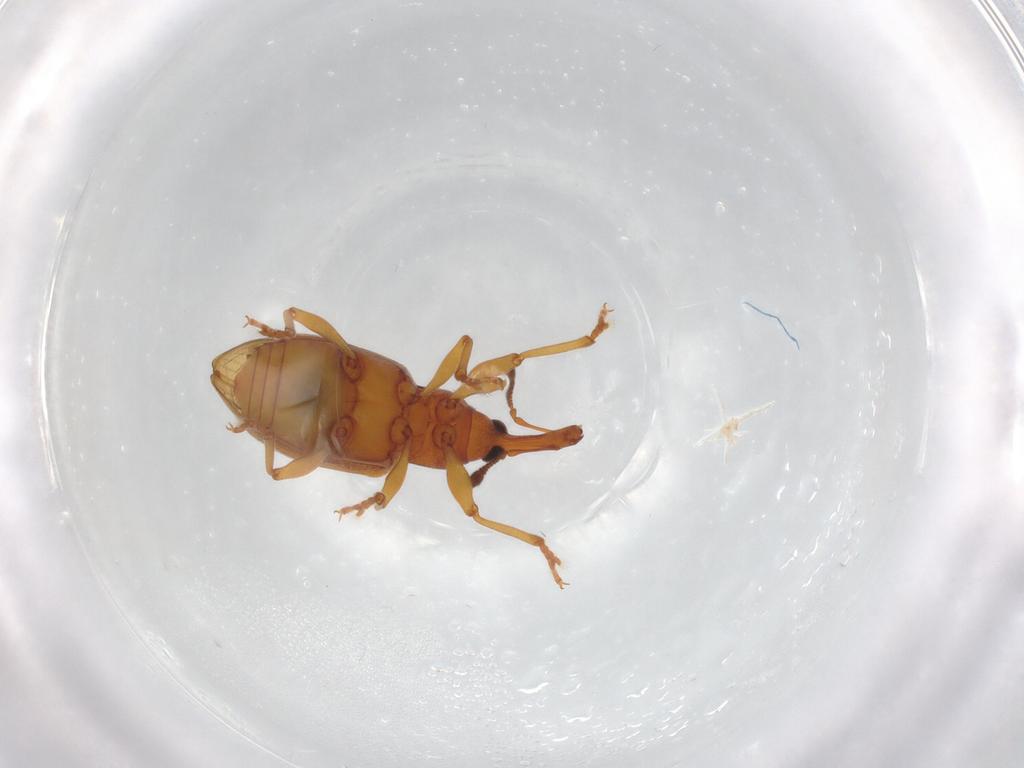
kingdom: Animalia
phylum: Arthropoda
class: Insecta
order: Coleoptera
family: Curculionidae
